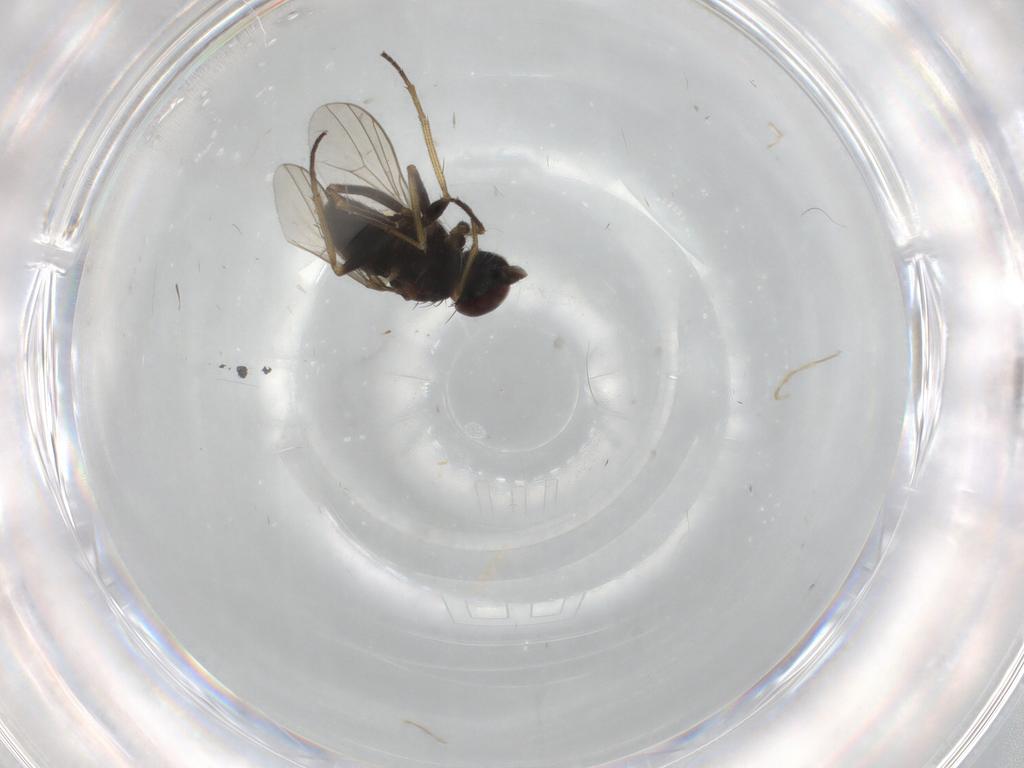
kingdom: Animalia
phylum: Arthropoda
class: Insecta
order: Diptera
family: Dolichopodidae
